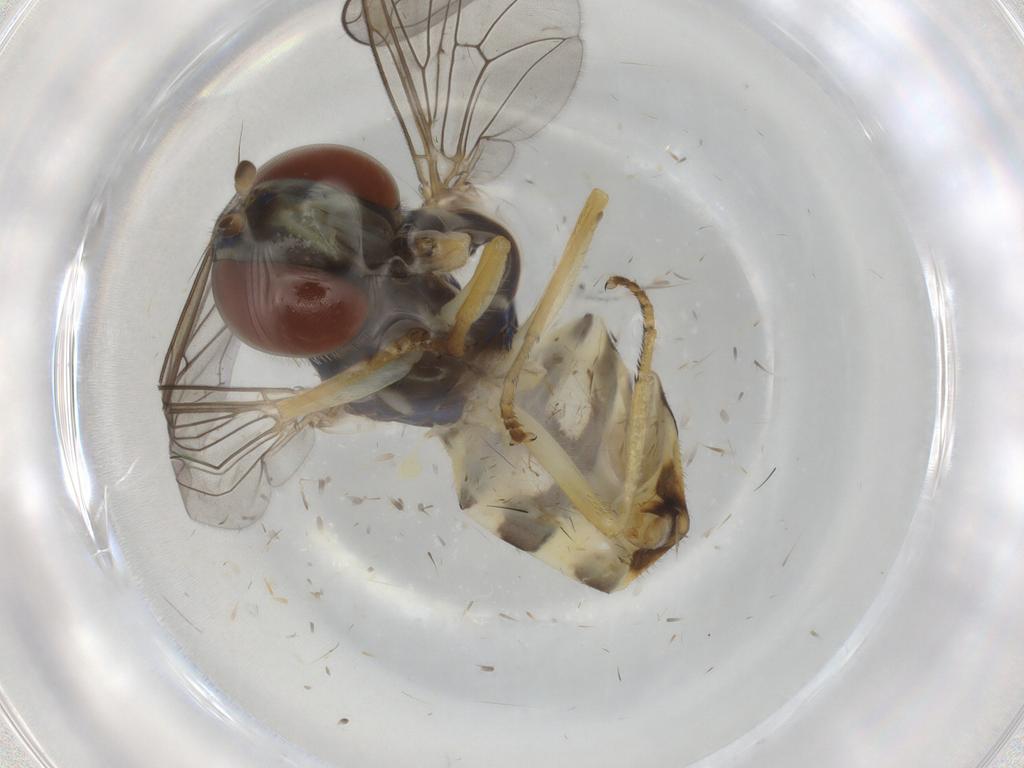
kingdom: Animalia
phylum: Arthropoda
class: Insecta
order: Diptera
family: Syrphidae
